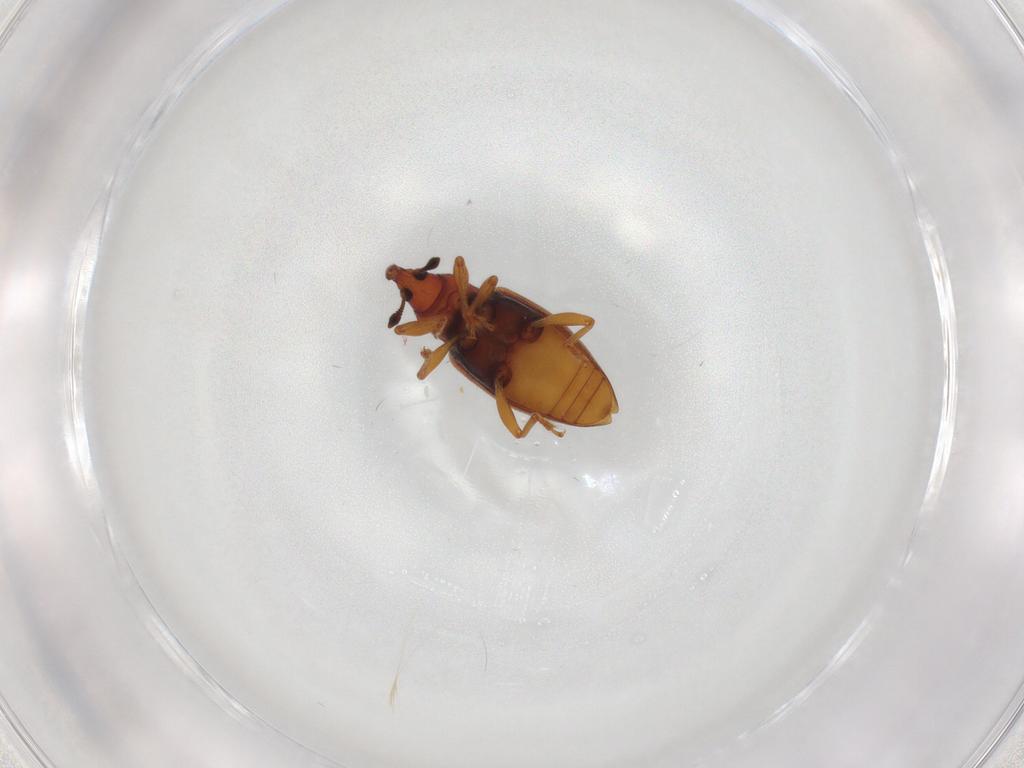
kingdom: Animalia
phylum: Arthropoda
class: Insecta
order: Coleoptera
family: Curculionidae
